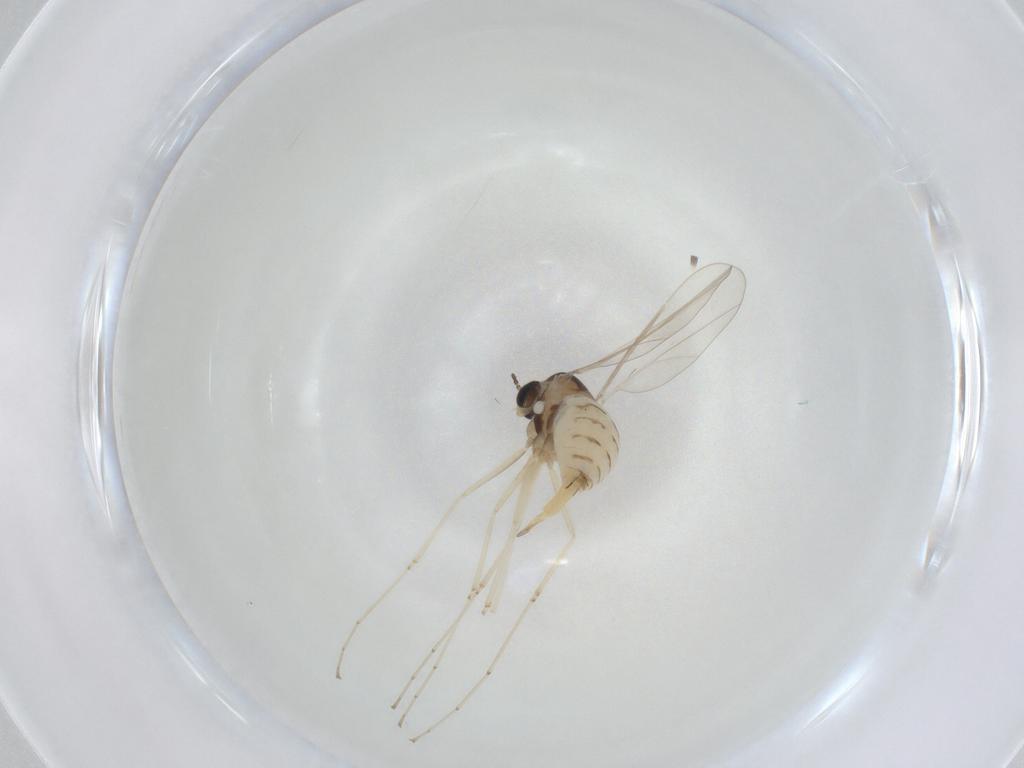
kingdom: Animalia
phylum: Arthropoda
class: Insecta
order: Diptera
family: Cecidomyiidae
